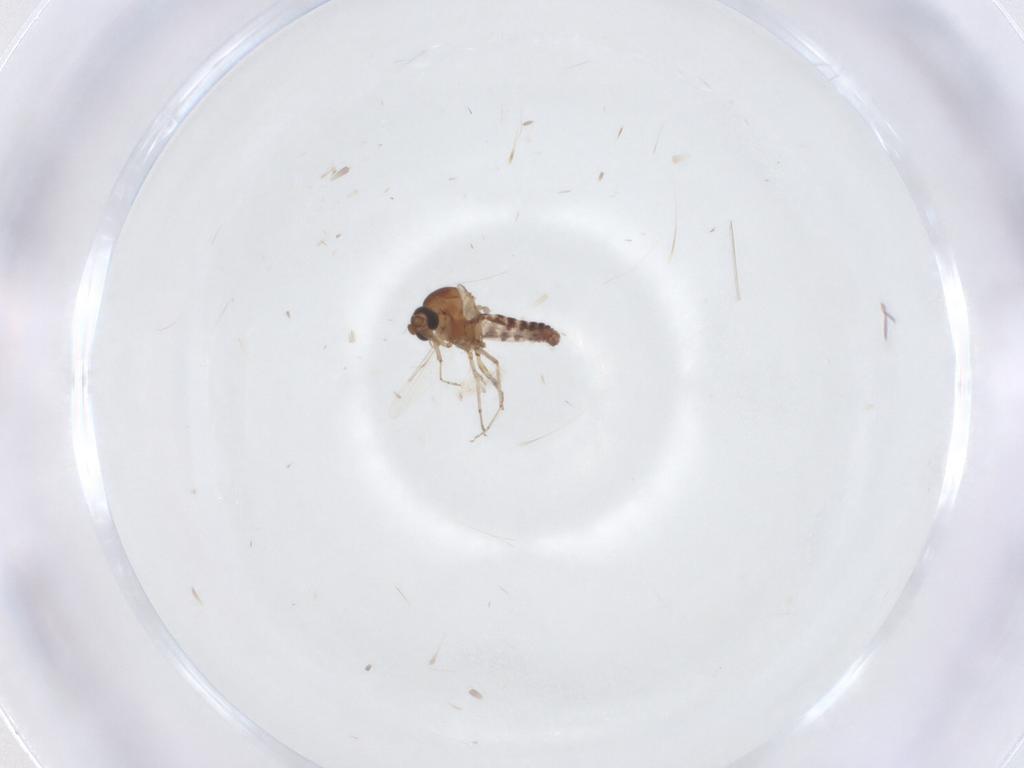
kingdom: Animalia
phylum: Arthropoda
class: Insecta
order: Diptera
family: Ceratopogonidae
